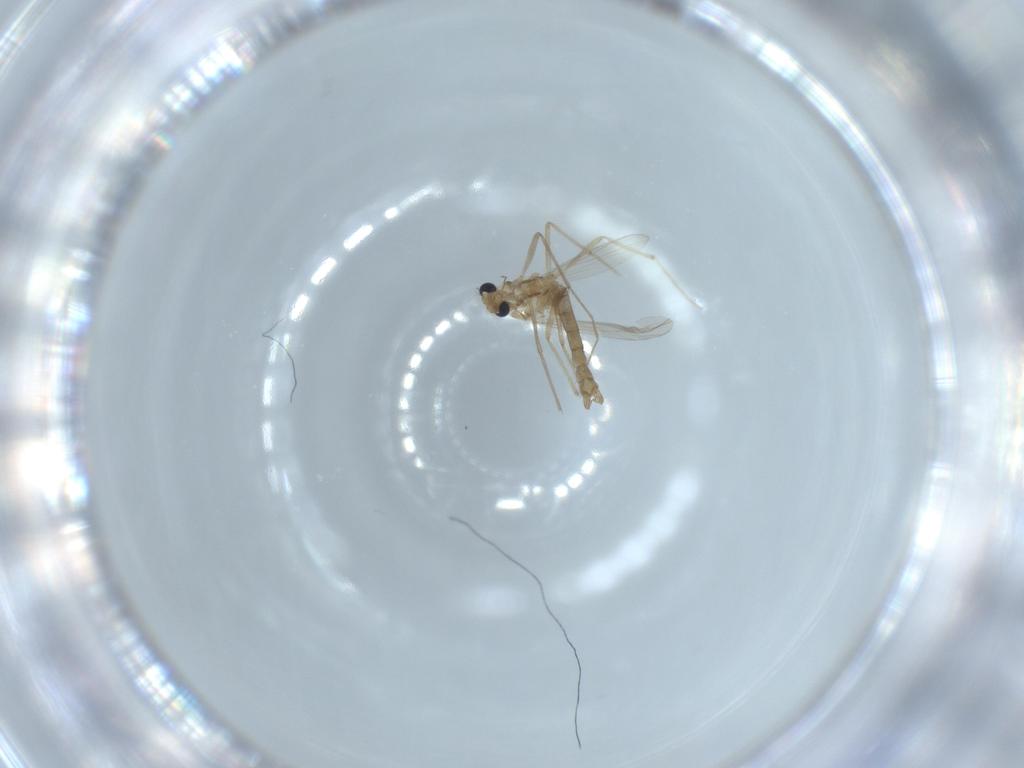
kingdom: Animalia
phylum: Arthropoda
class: Insecta
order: Diptera
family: Chironomidae
